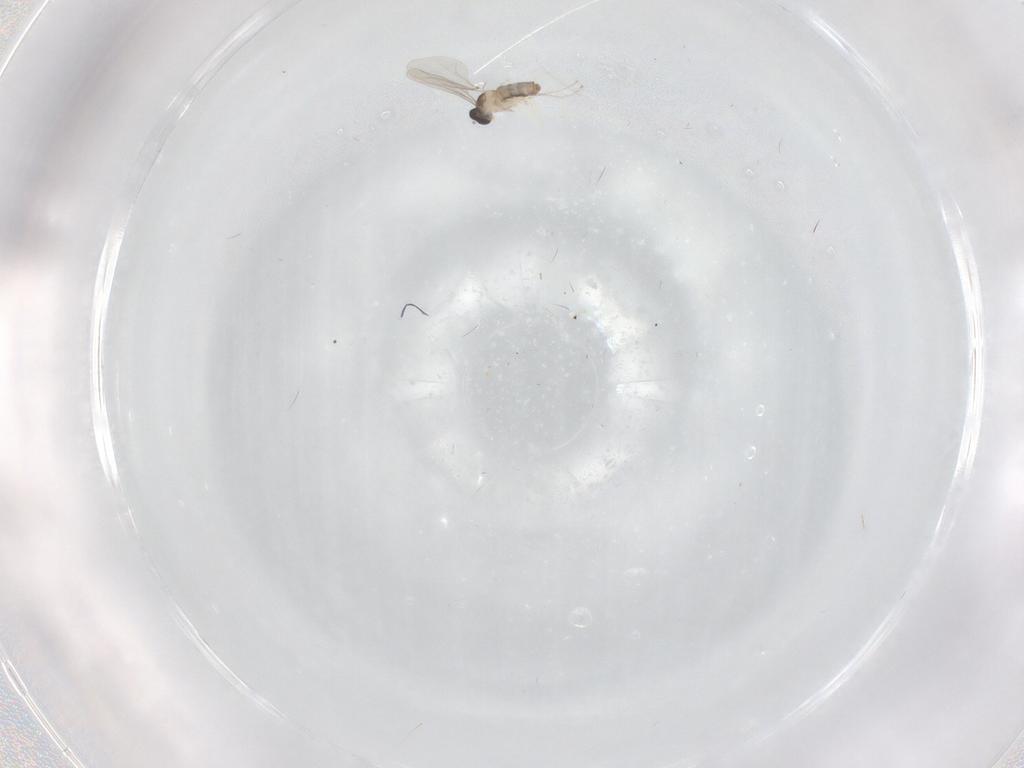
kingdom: Animalia
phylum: Arthropoda
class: Insecta
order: Diptera
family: Cecidomyiidae
